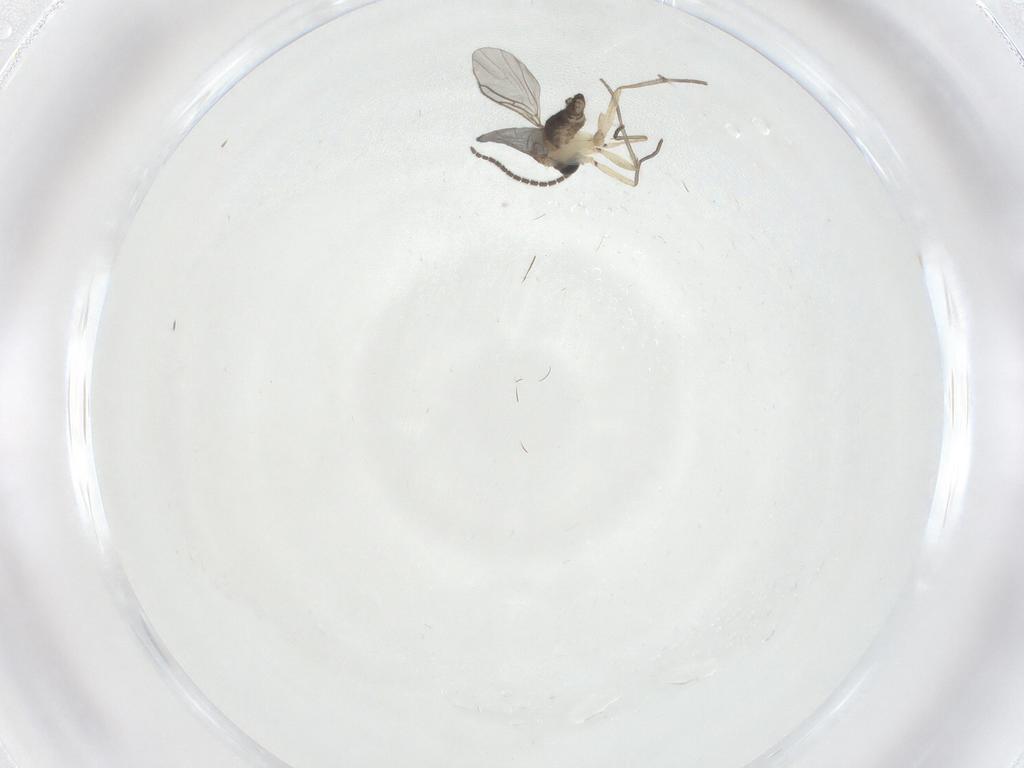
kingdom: Animalia
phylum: Arthropoda
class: Insecta
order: Diptera
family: Sciaridae
